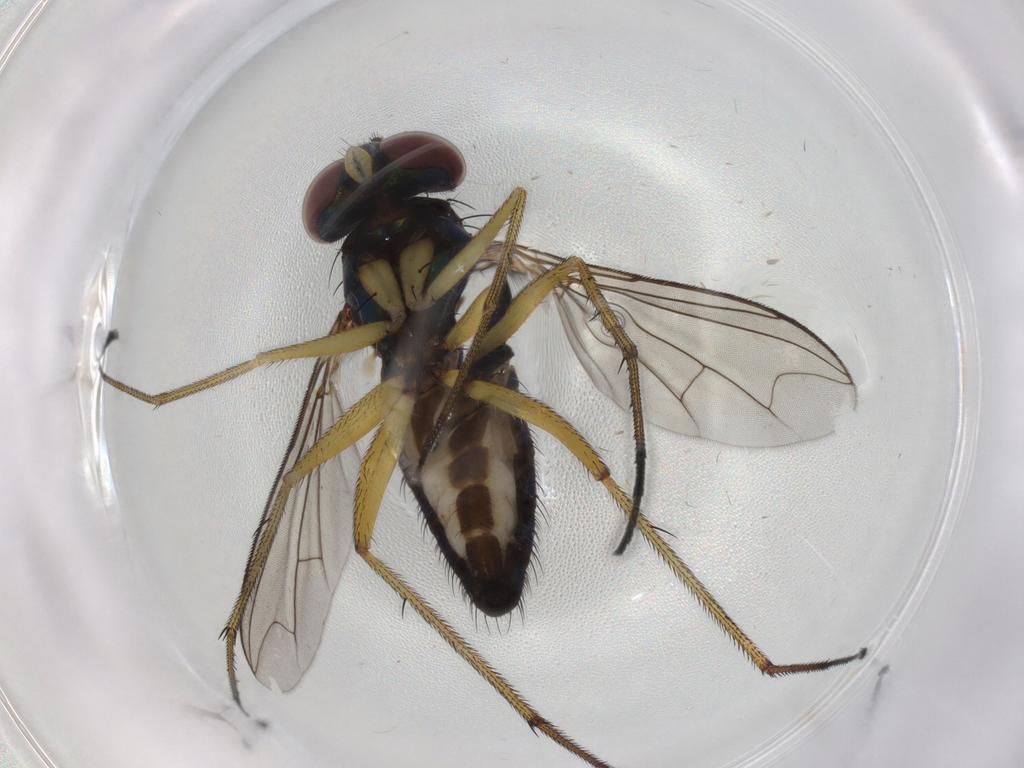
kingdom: Animalia
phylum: Arthropoda
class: Insecta
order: Diptera
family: Dolichopodidae
